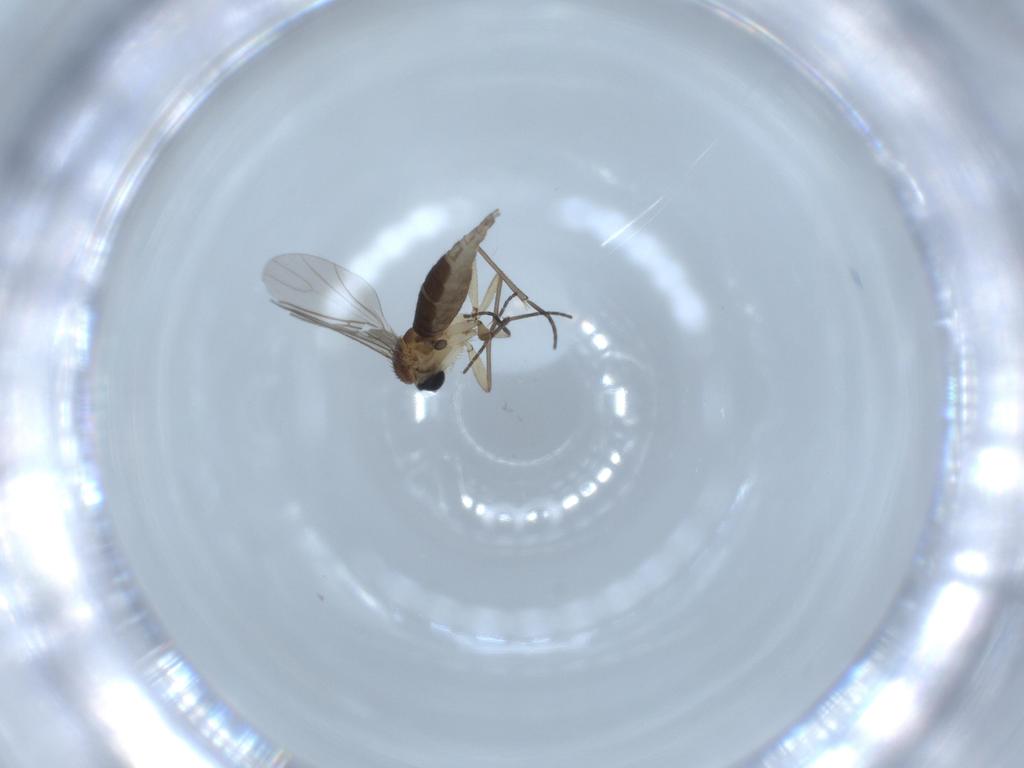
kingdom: Animalia
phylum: Arthropoda
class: Insecta
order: Diptera
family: Sciaridae
